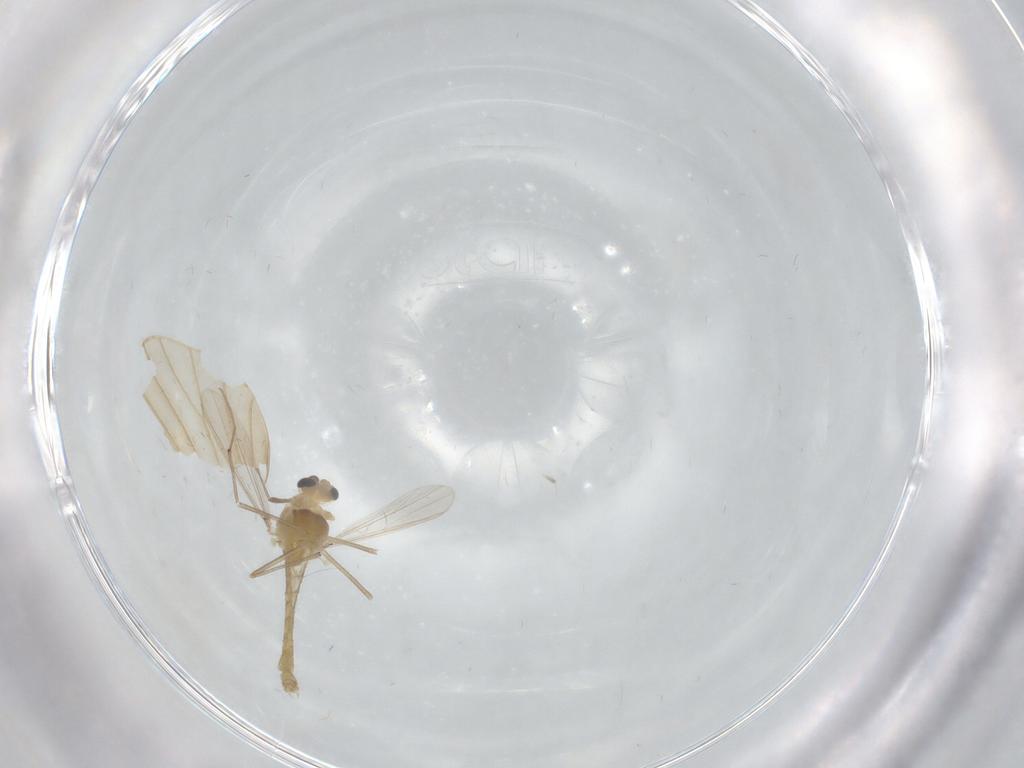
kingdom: Animalia
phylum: Arthropoda
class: Insecta
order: Diptera
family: Chironomidae
